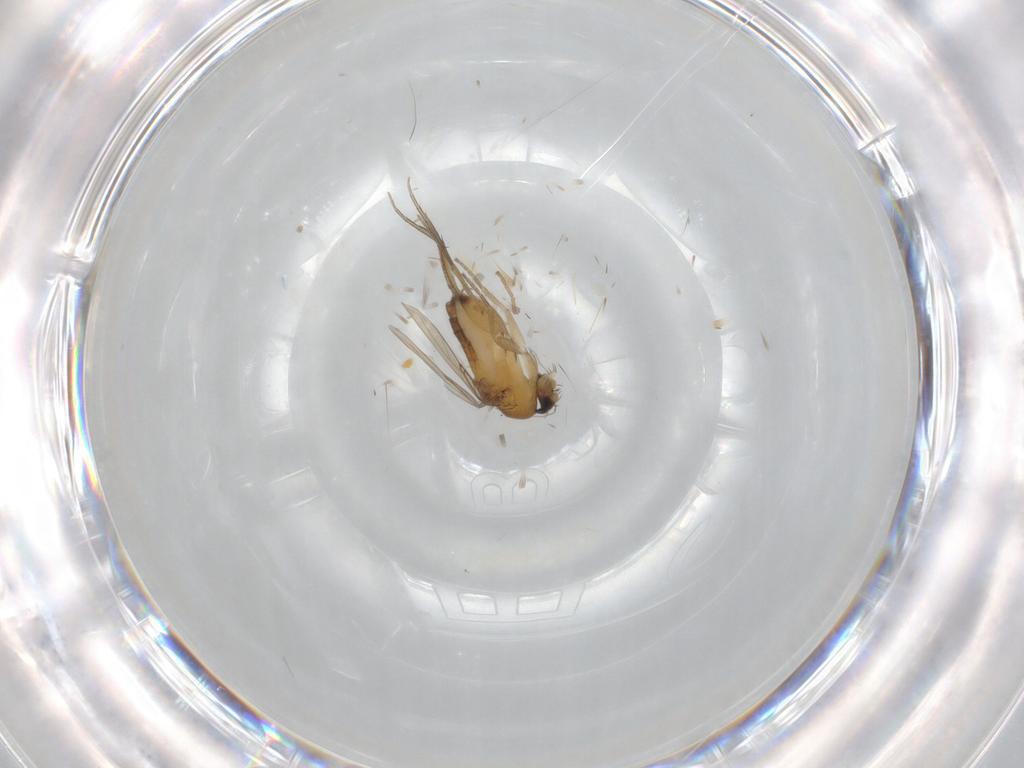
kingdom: Animalia
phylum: Arthropoda
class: Insecta
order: Diptera
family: Phoridae
